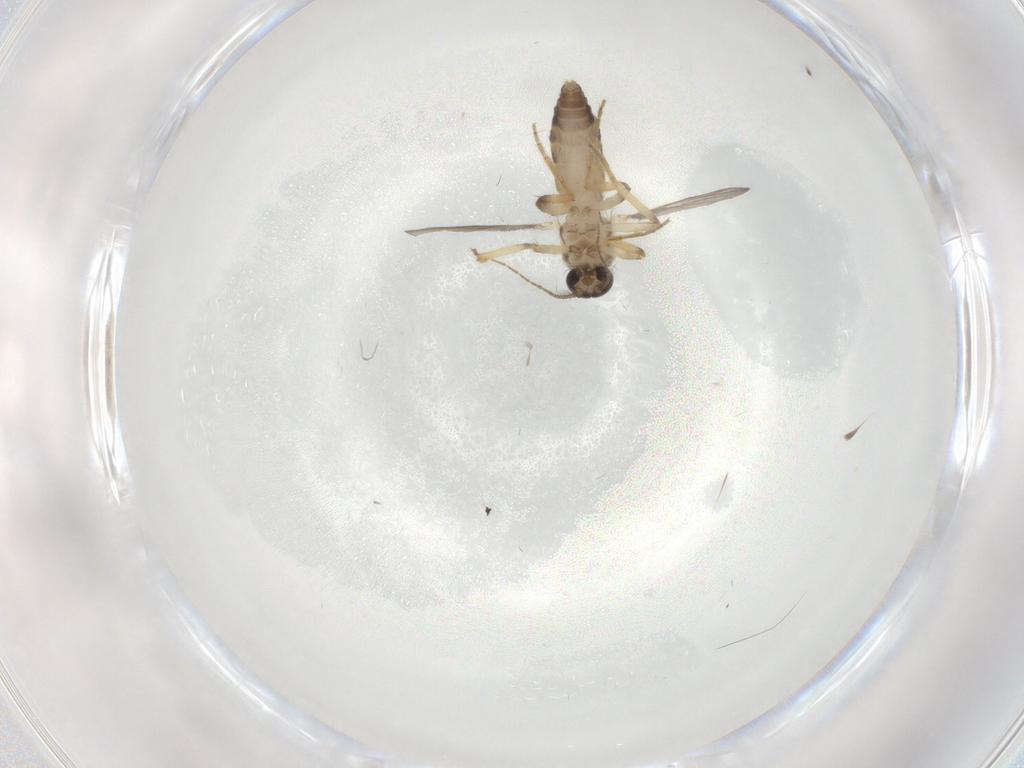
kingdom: Animalia
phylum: Arthropoda
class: Insecta
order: Diptera
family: Ceratopogonidae
